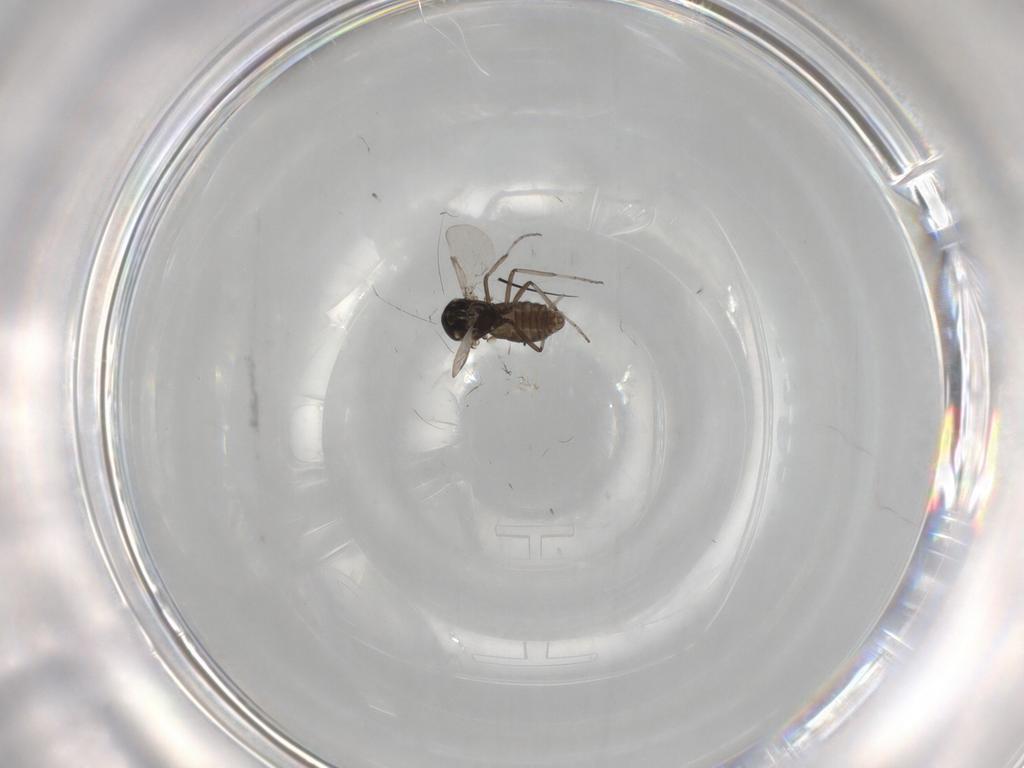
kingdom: Animalia
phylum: Arthropoda
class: Insecta
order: Diptera
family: Ceratopogonidae
